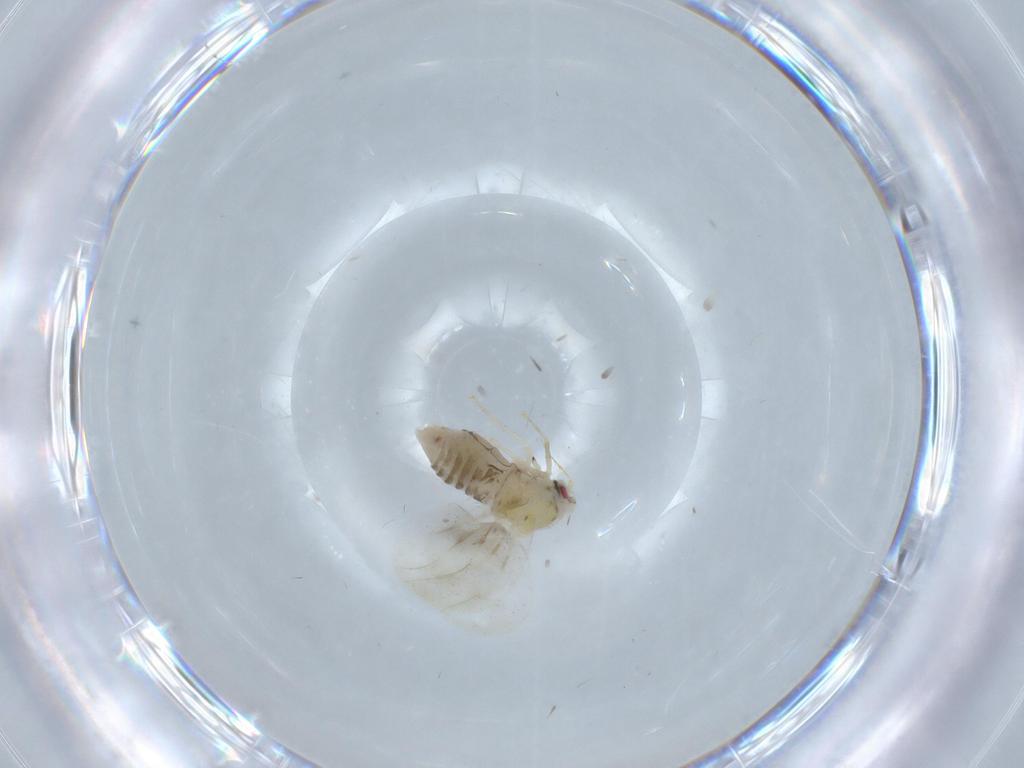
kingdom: Animalia
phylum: Arthropoda
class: Insecta
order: Hemiptera
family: Aleyrodidae
